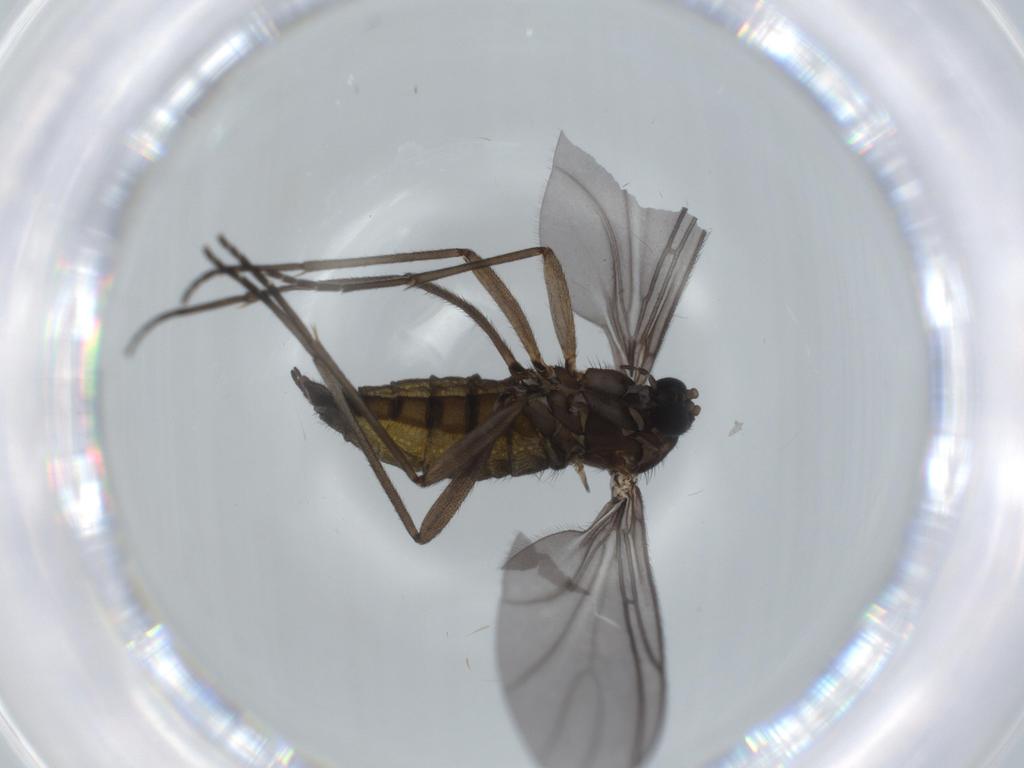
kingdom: Animalia
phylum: Arthropoda
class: Insecta
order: Diptera
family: Sciaridae
